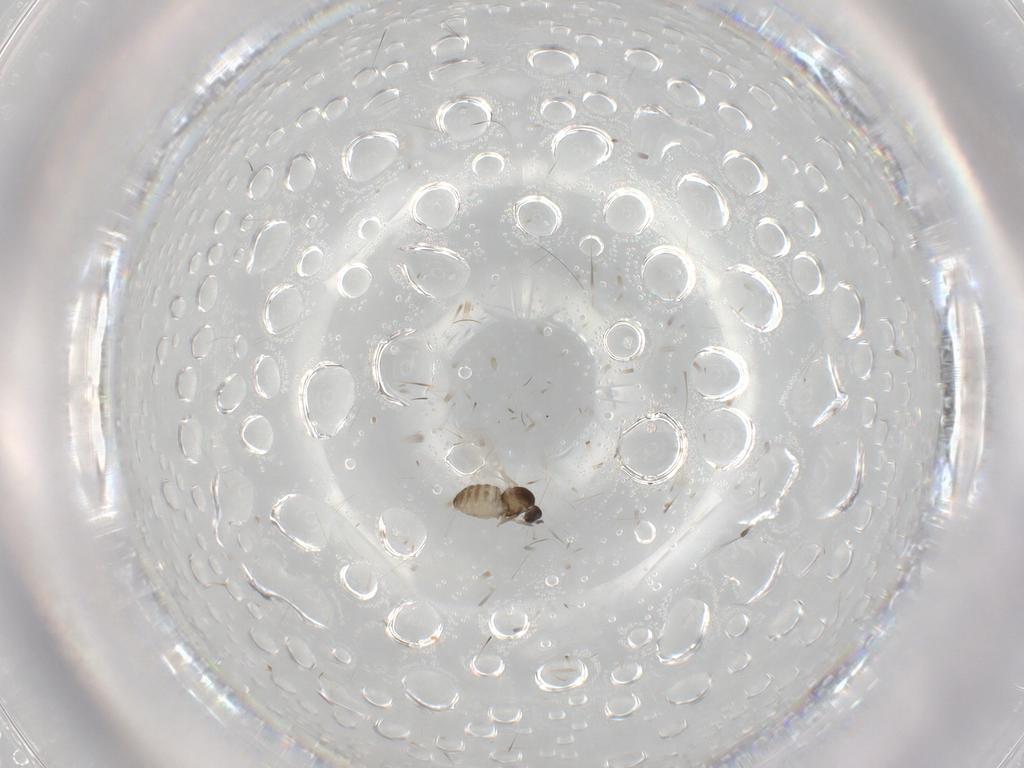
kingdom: Animalia
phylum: Arthropoda
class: Insecta
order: Diptera
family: Cecidomyiidae
